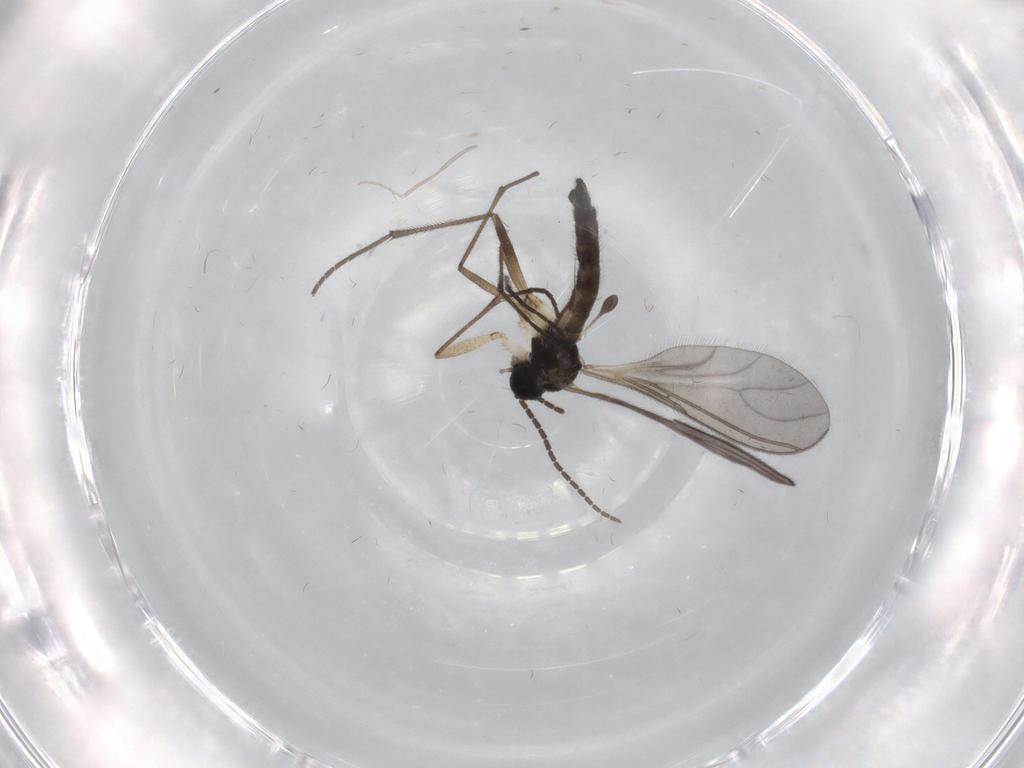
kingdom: Animalia
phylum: Arthropoda
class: Insecta
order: Diptera
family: Sciaridae
